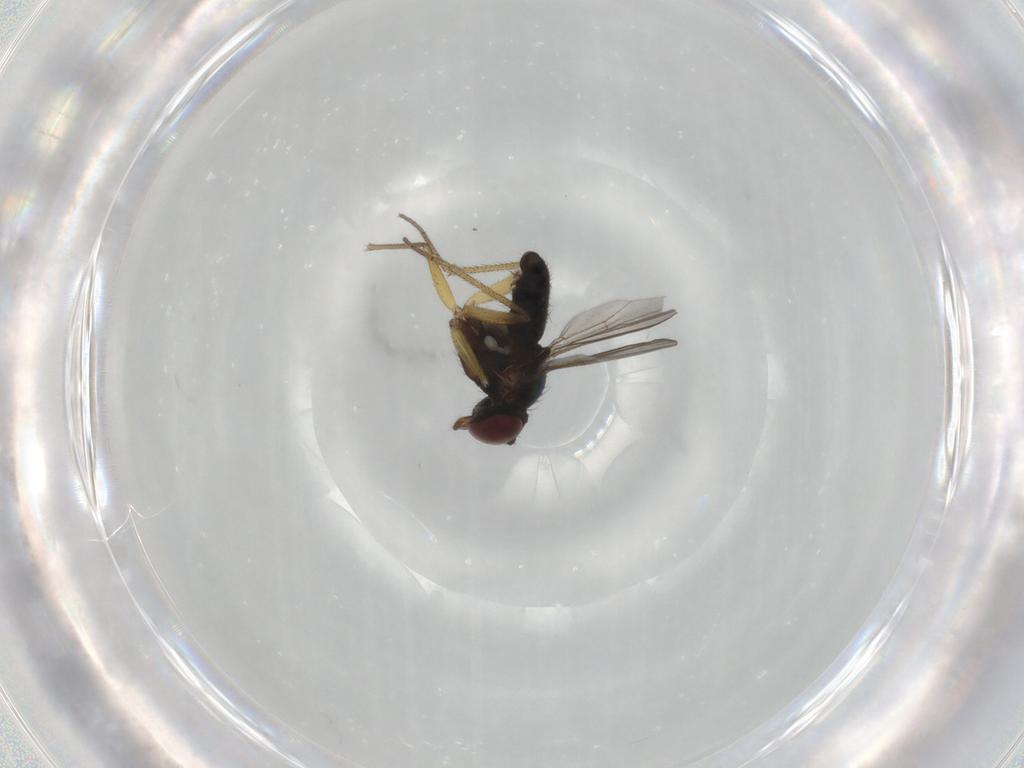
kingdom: Animalia
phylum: Arthropoda
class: Insecta
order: Diptera
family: Dolichopodidae
